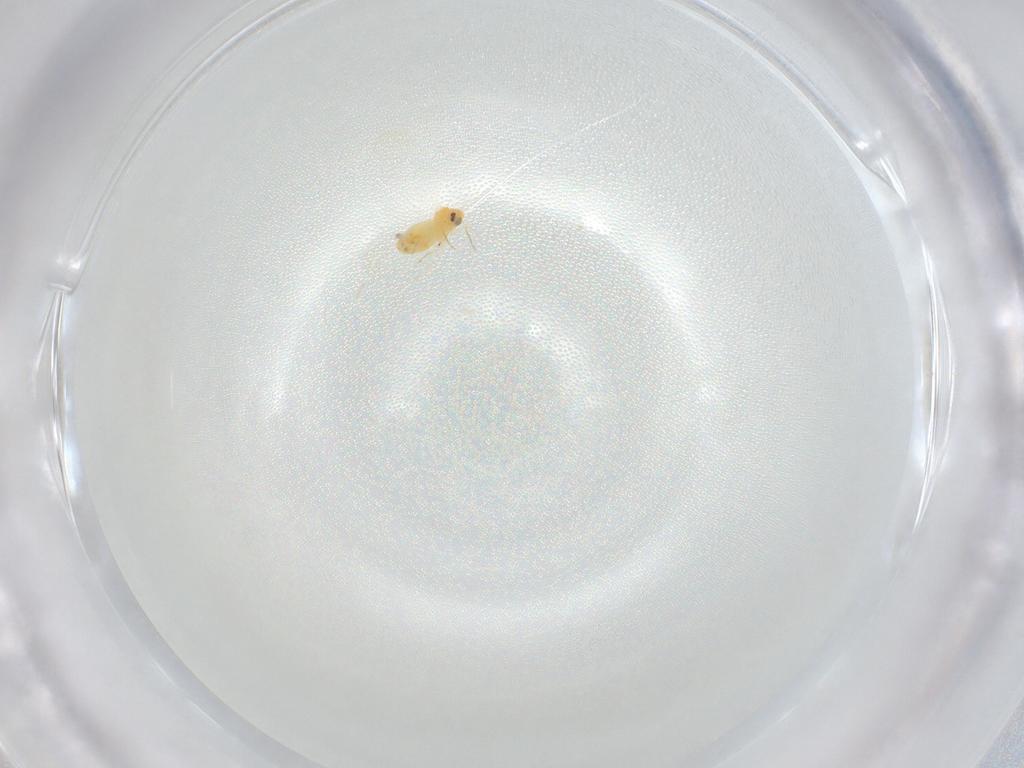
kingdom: Animalia
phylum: Arthropoda
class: Insecta
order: Hemiptera
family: Aleyrodidae
